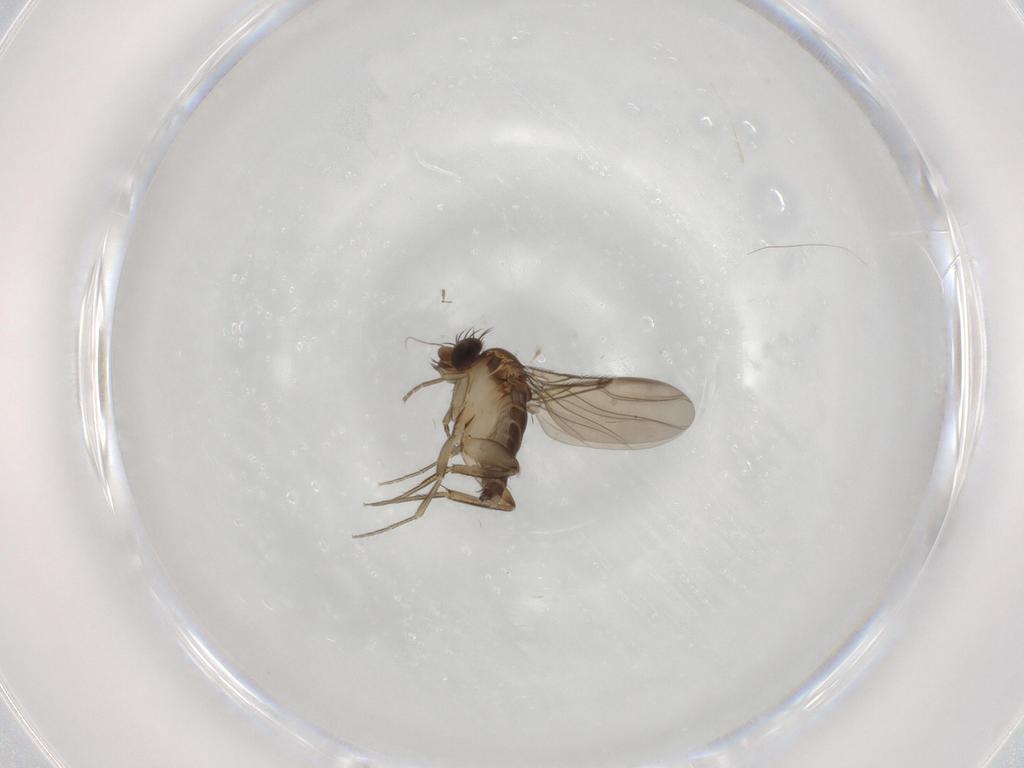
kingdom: Animalia
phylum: Arthropoda
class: Insecta
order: Diptera
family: Phoridae
